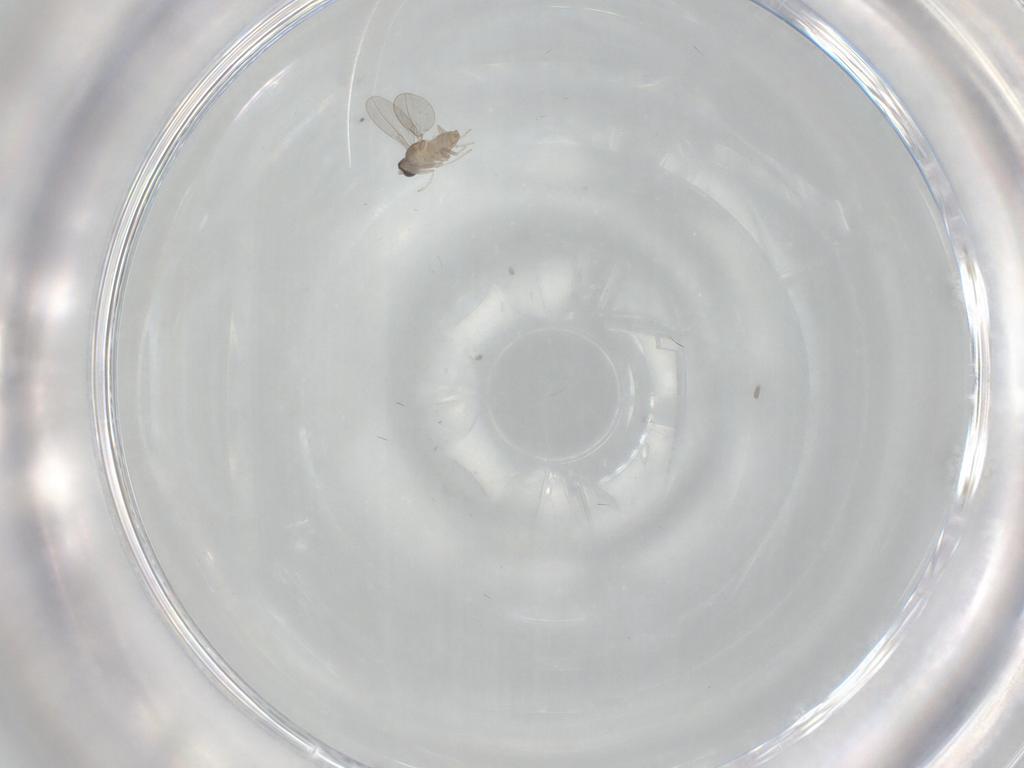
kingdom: Animalia
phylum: Arthropoda
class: Insecta
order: Diptera
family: Cecidomyiidae
